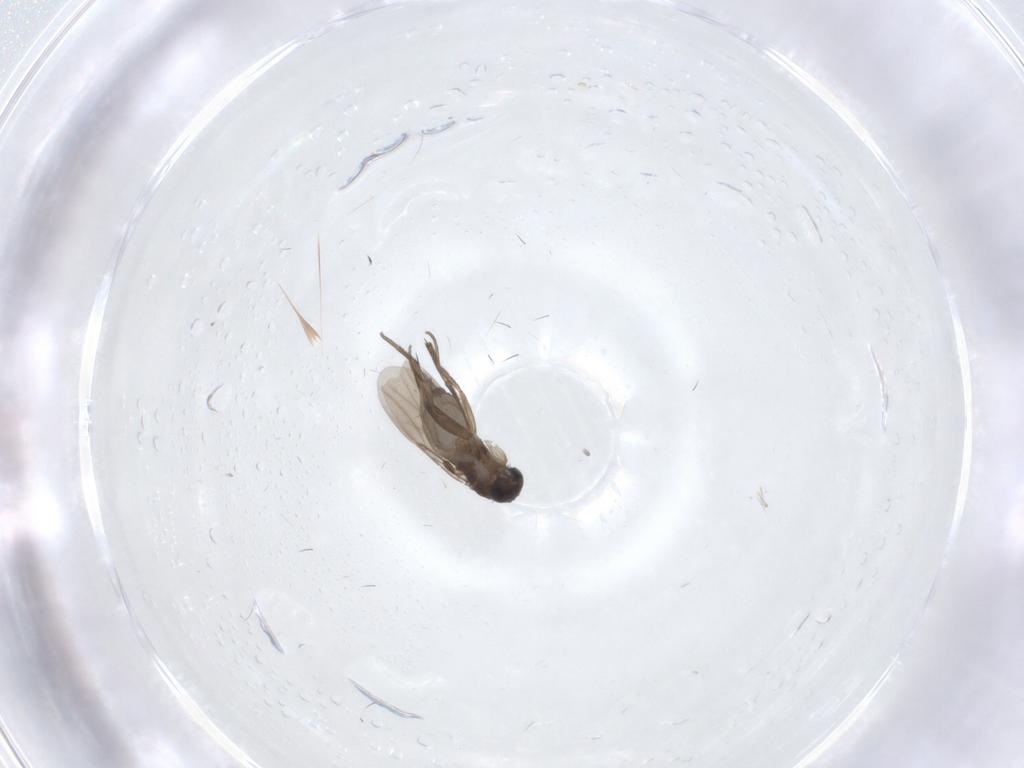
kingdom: Animalia
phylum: Arthropoda
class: Insecta
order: Diptera
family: Phoridae
